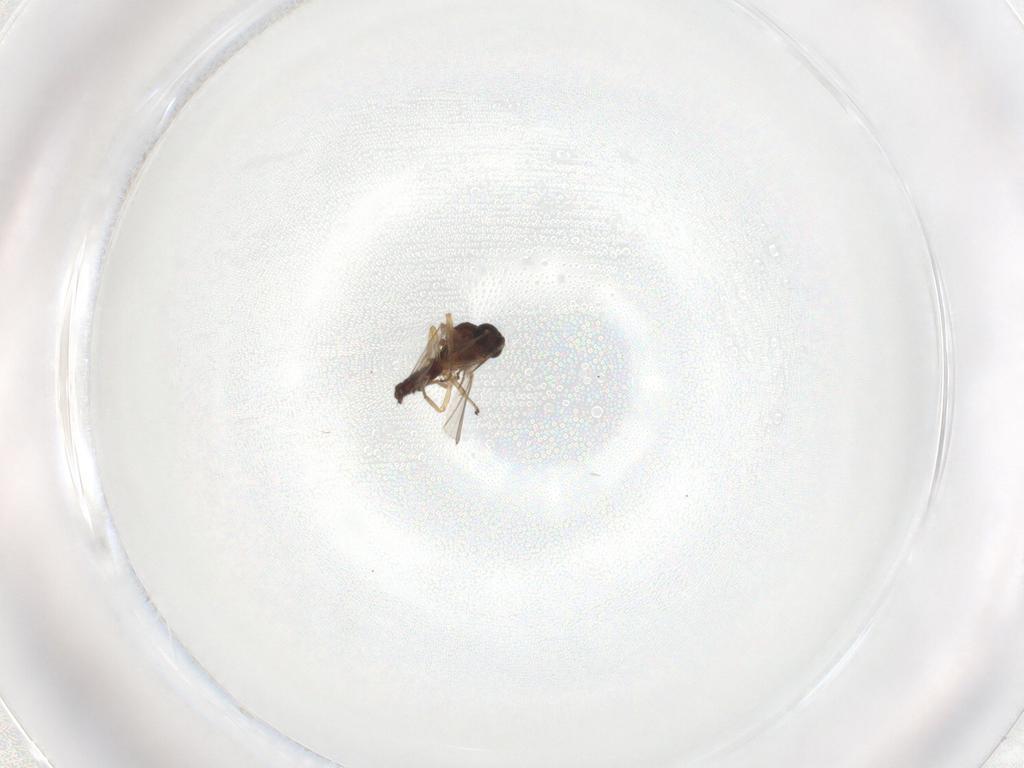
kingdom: Animalia
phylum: Arthropoda
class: Insecta
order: Diptera
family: Ceratopogonidae
